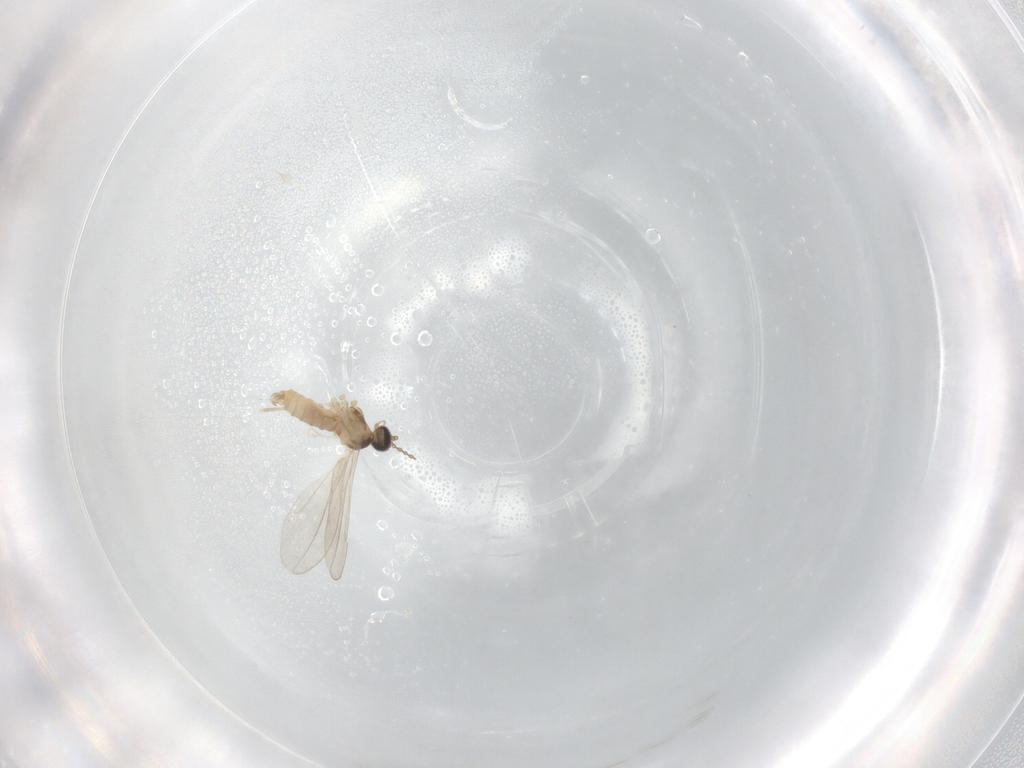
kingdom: Animalia
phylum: Arthropoda
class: Insecta
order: Diptera
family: Cecidomyiidae
